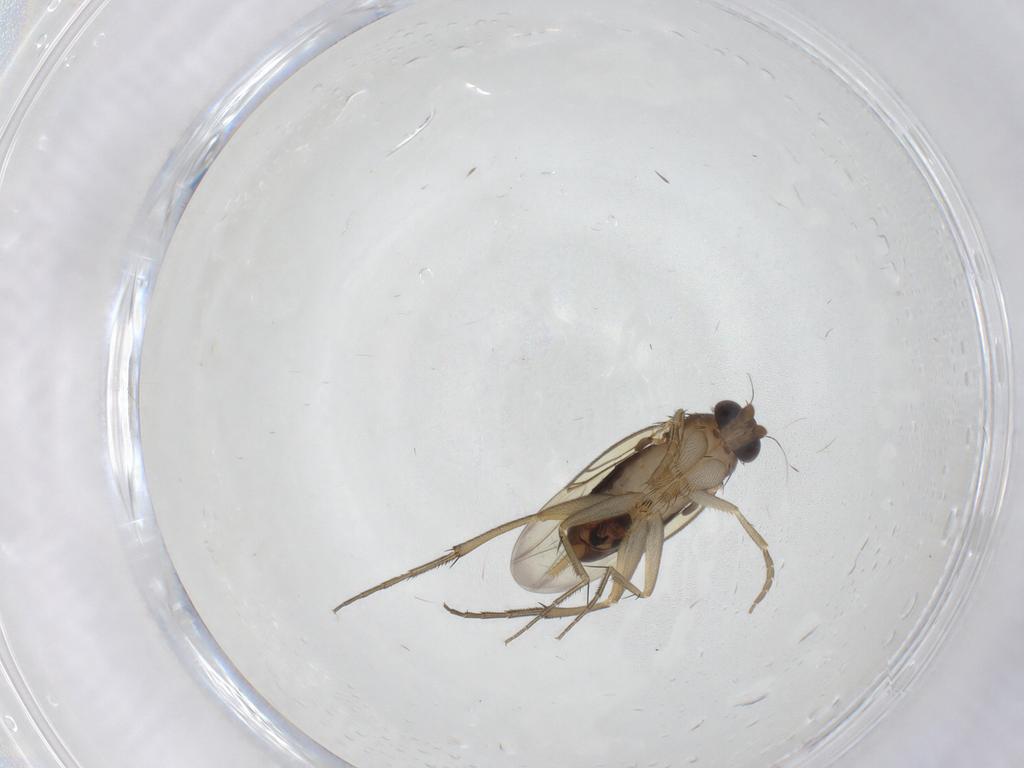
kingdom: Animalia
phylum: Arthropoda
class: Insecta
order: Diptera
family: Phoridae
